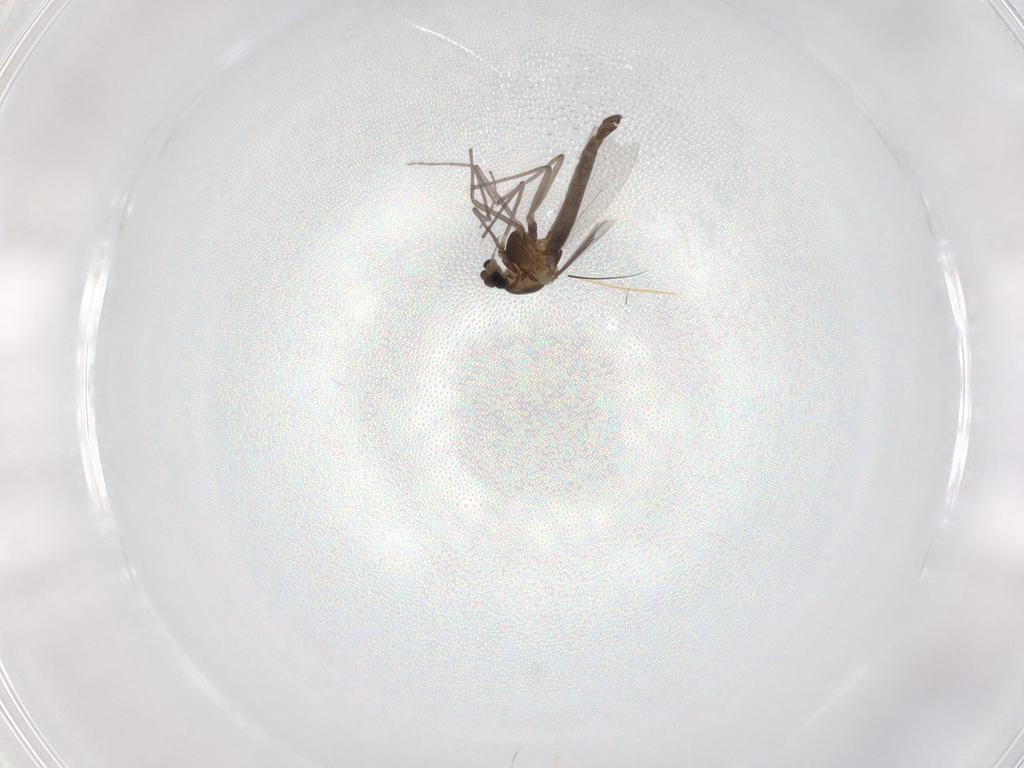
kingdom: Animalia
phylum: Arthropoda
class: Insecta
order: Diptera
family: Chironomidae
